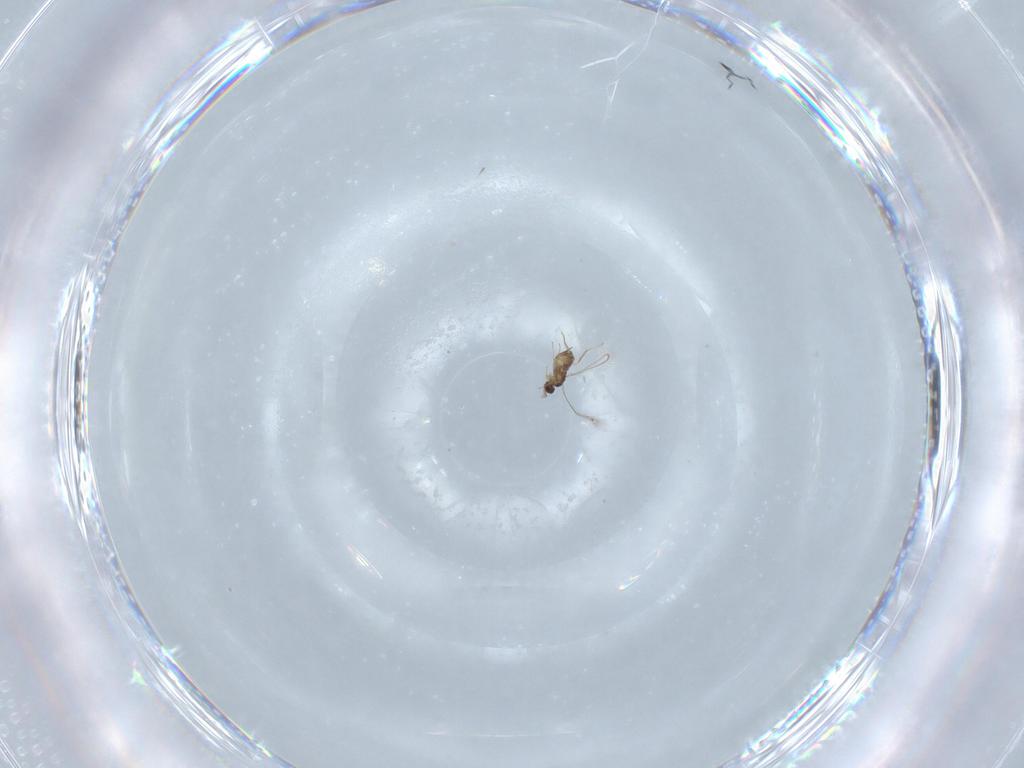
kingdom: Animalia
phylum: Arthropoda
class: Insecta
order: Hymenoptera
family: Mymaridae
